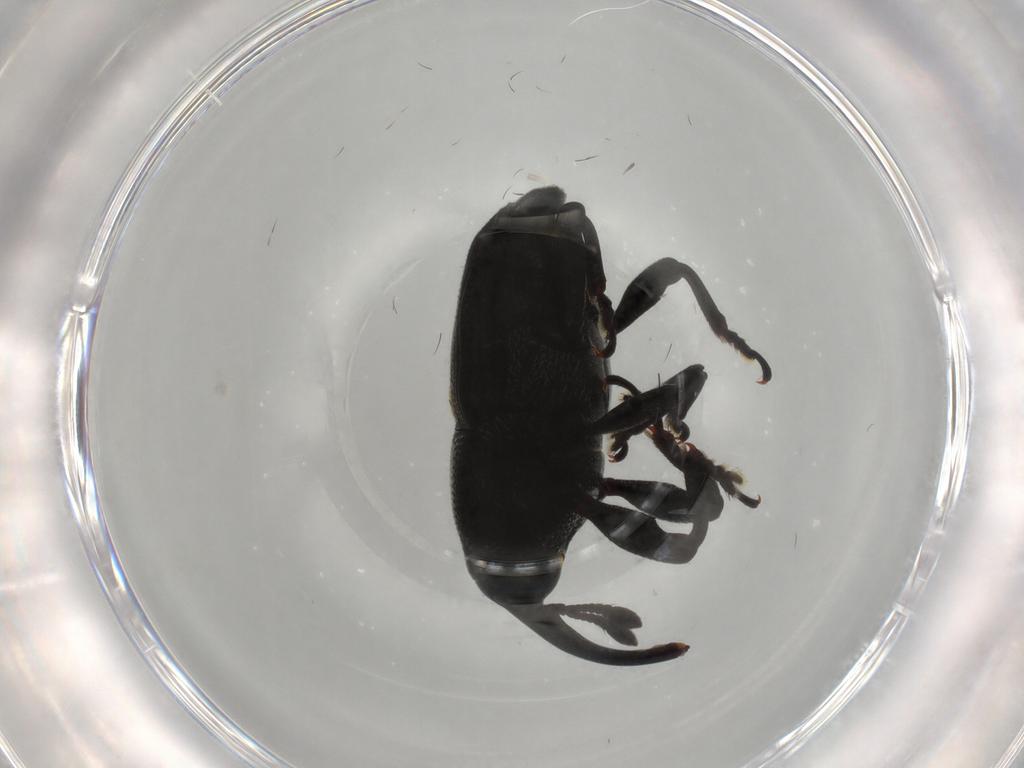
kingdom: Animalia
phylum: Arthropoda
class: Insecta
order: Coleoptera
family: Curculionidae
